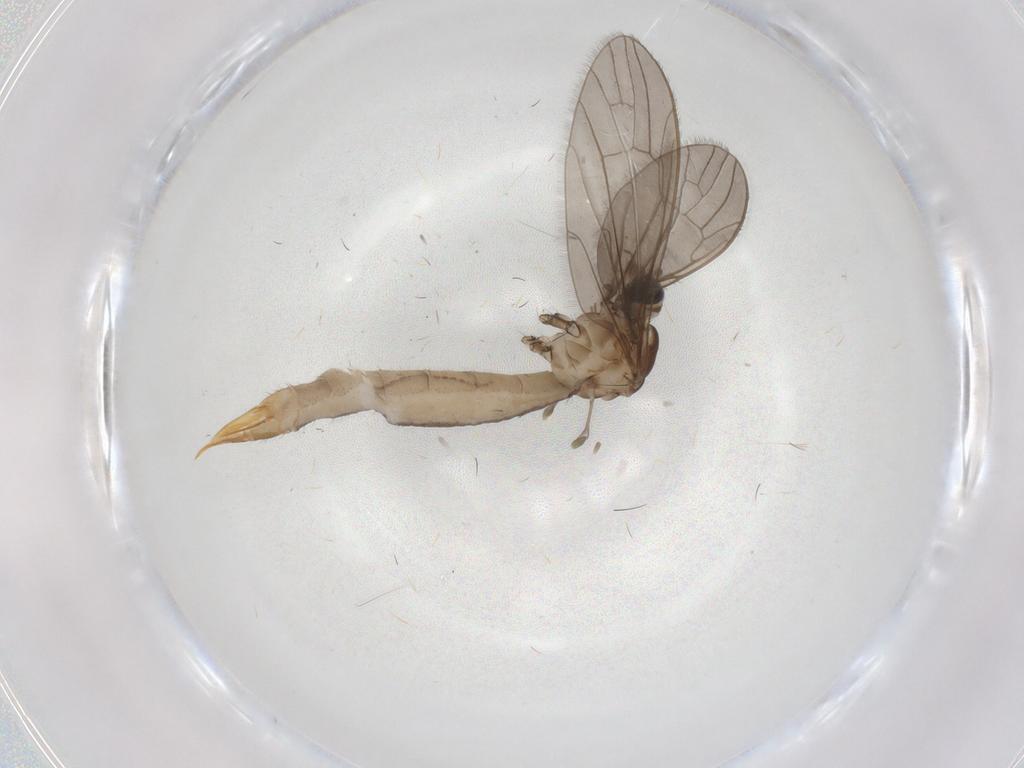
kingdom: Animalia
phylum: Arthropoda
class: Insecta
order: Diptera
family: Limoniidae
